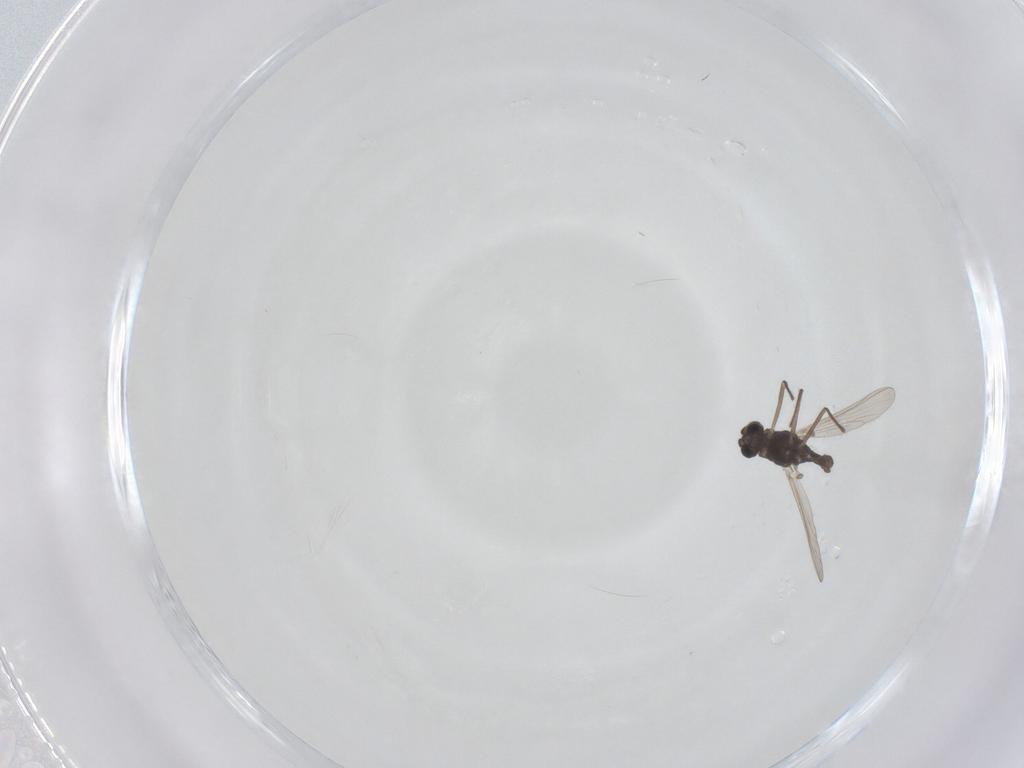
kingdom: Animalia
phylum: Arthropoda
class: Insecta
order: Diptera
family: Chironomidae
